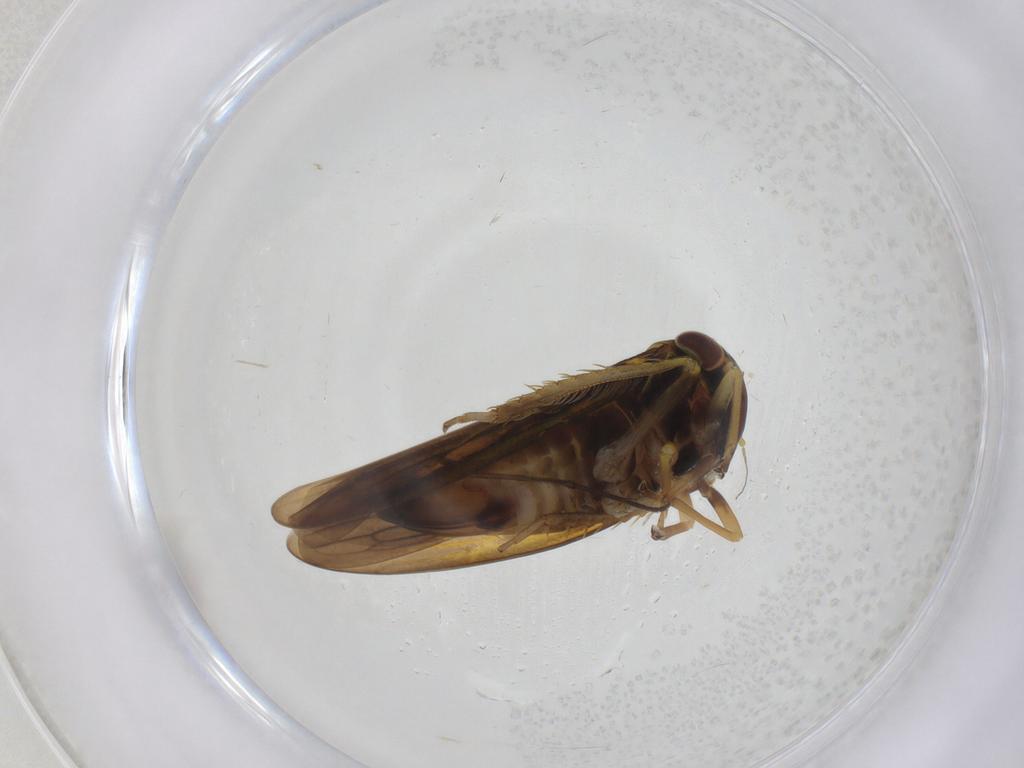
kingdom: Animalia
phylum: Arthropoda
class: Insecta
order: Hemiptera
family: Cicadellidae
